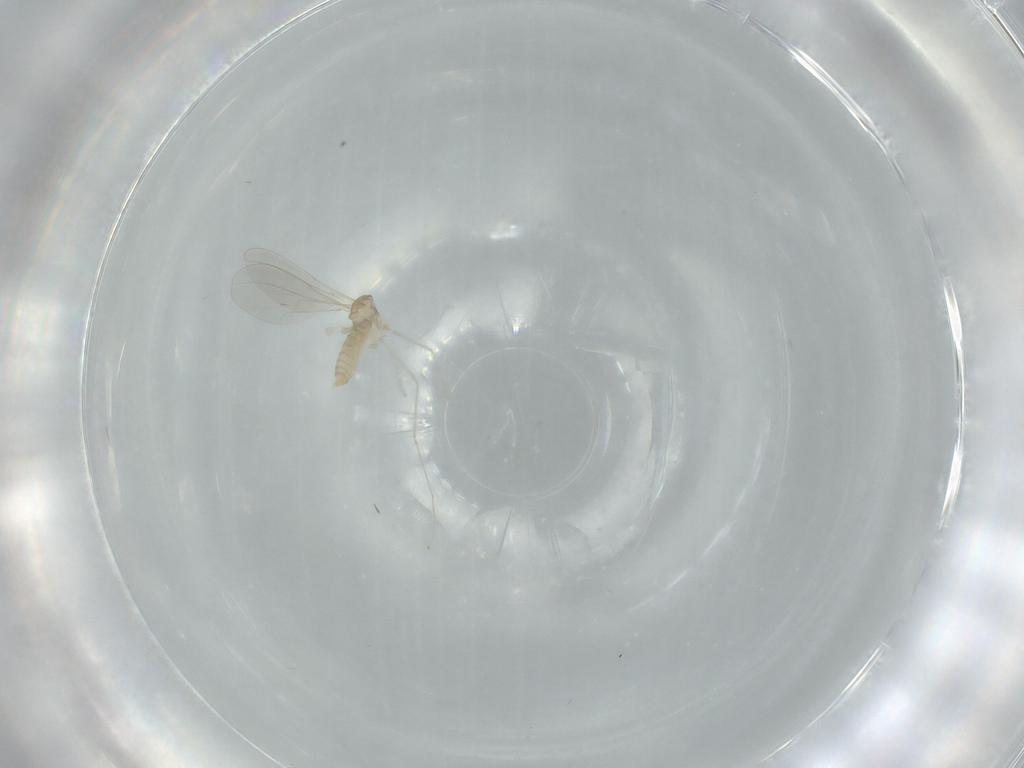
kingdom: Animalia
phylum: Arthropoda
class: Insecta
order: Diptera
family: Cecidomyiidae
